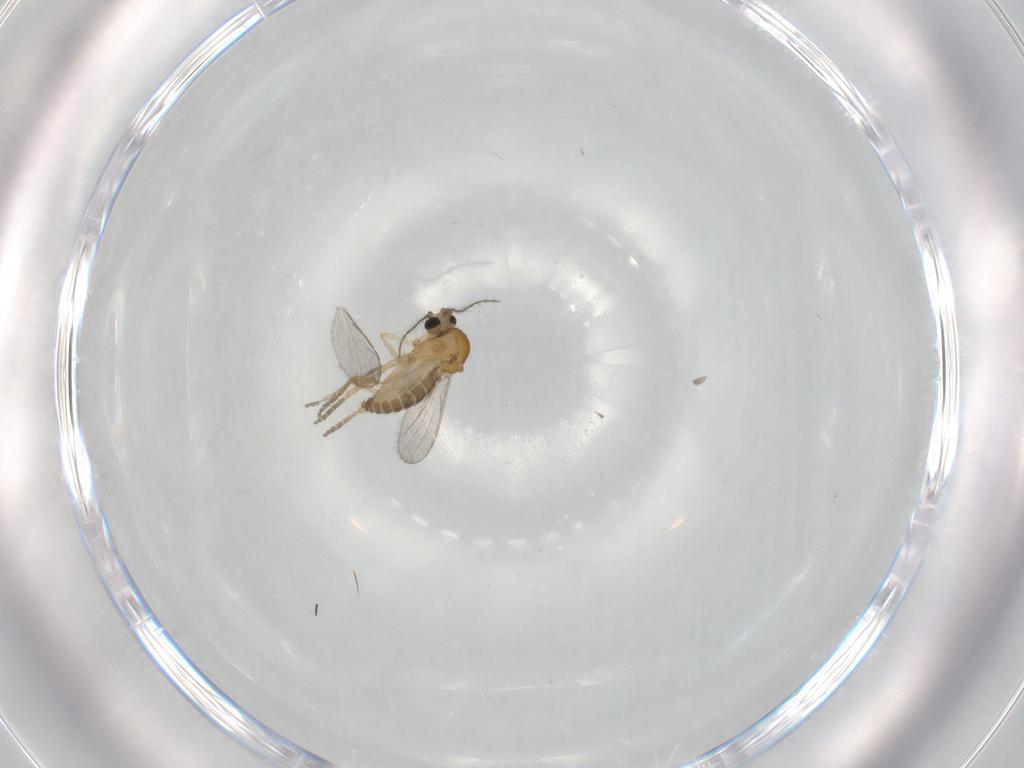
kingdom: Animalia
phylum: Arthropoda
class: Insecta
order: Diptera
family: Ceratopogonidae
